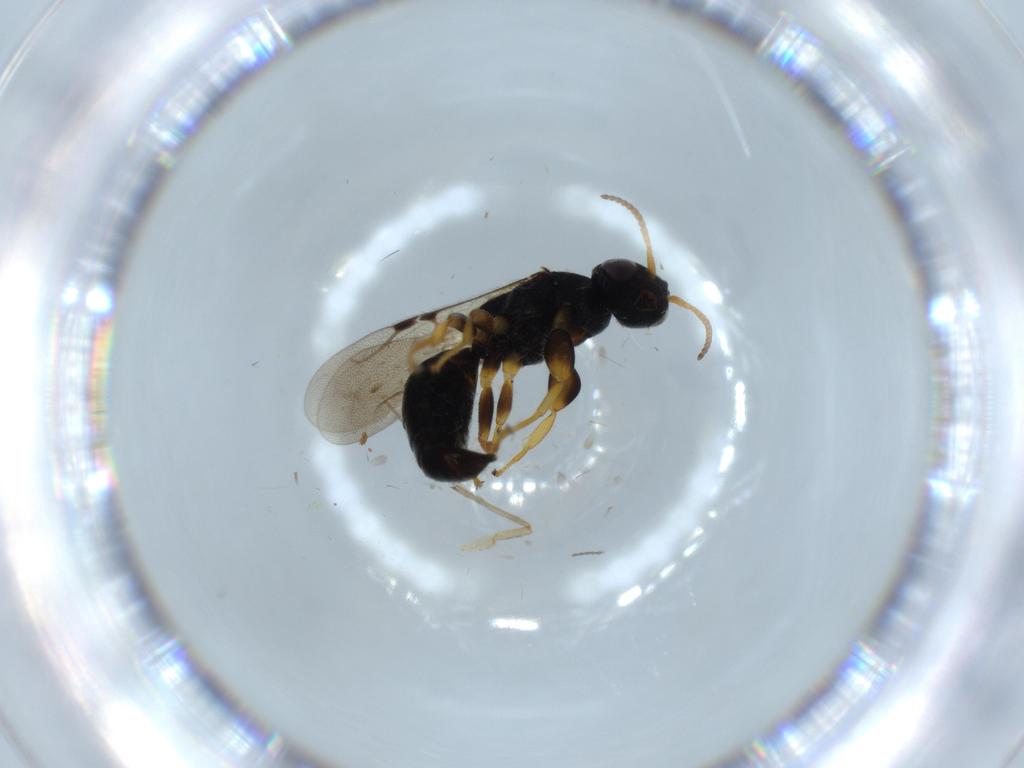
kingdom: Animalia
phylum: Arthropoda
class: Insecta
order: Hymenoptera
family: Bethylidae
